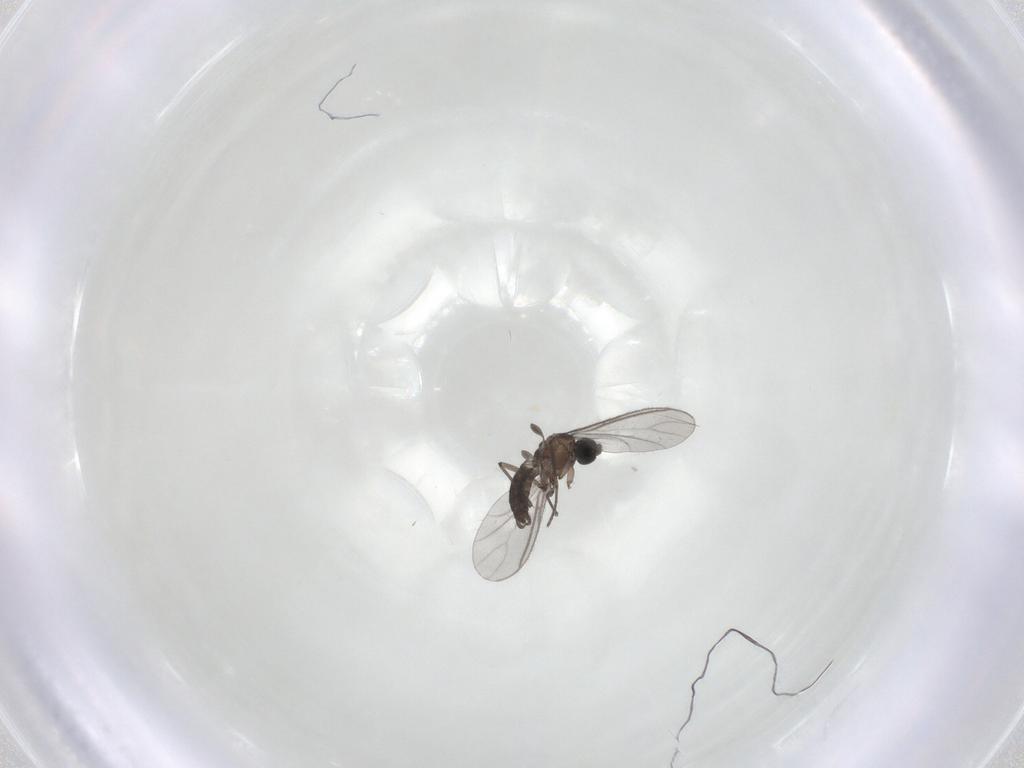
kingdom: Animalia
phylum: Arthropoda
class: Insecta
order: Diptera
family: Sciaridae
